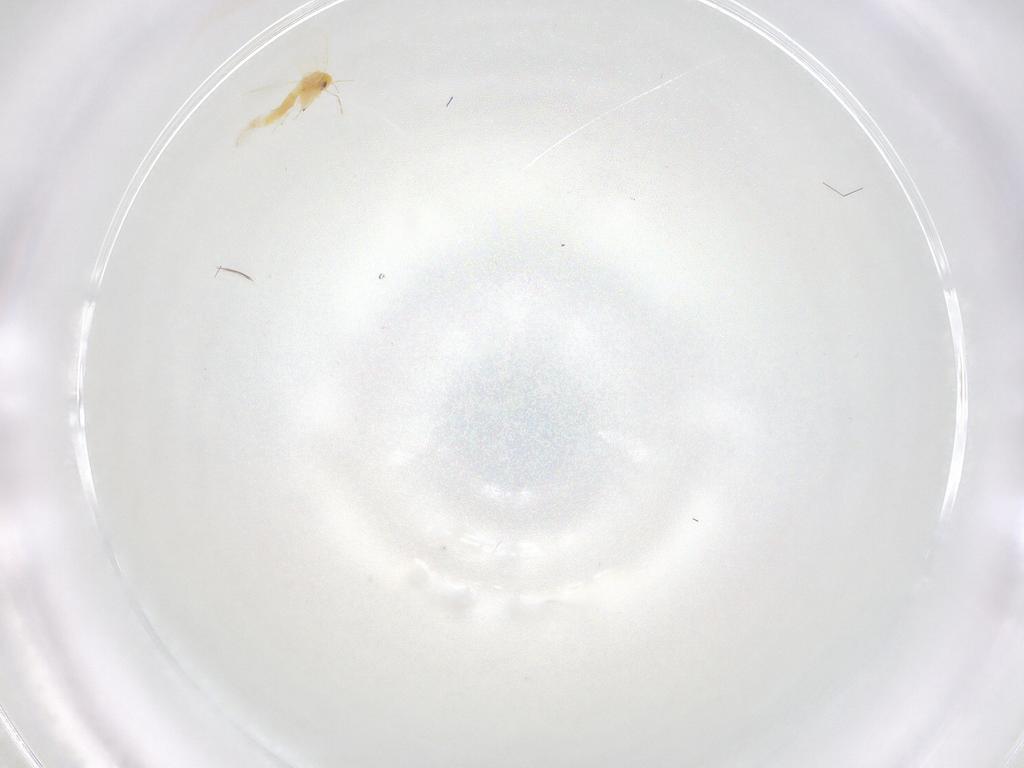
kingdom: Animalia
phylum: Arthropoda
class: Insecta
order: Hemiptera
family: Aleyrodidae
